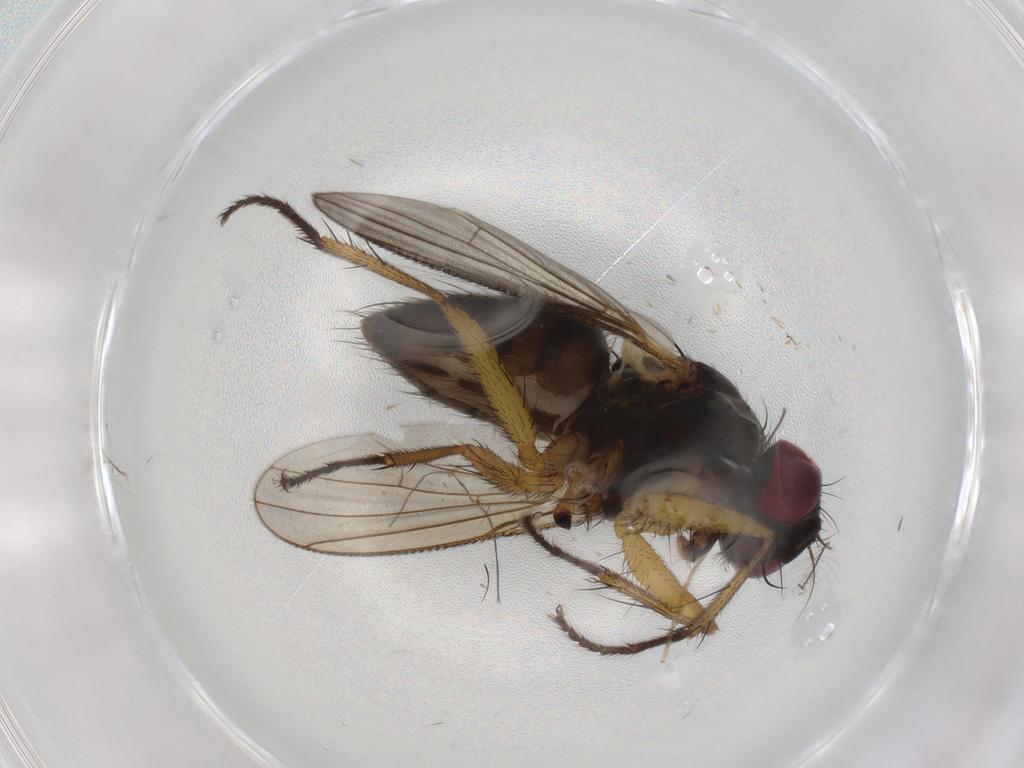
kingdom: Animalia
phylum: Arthropoda
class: Insecta
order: Diptera
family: Muscidae
